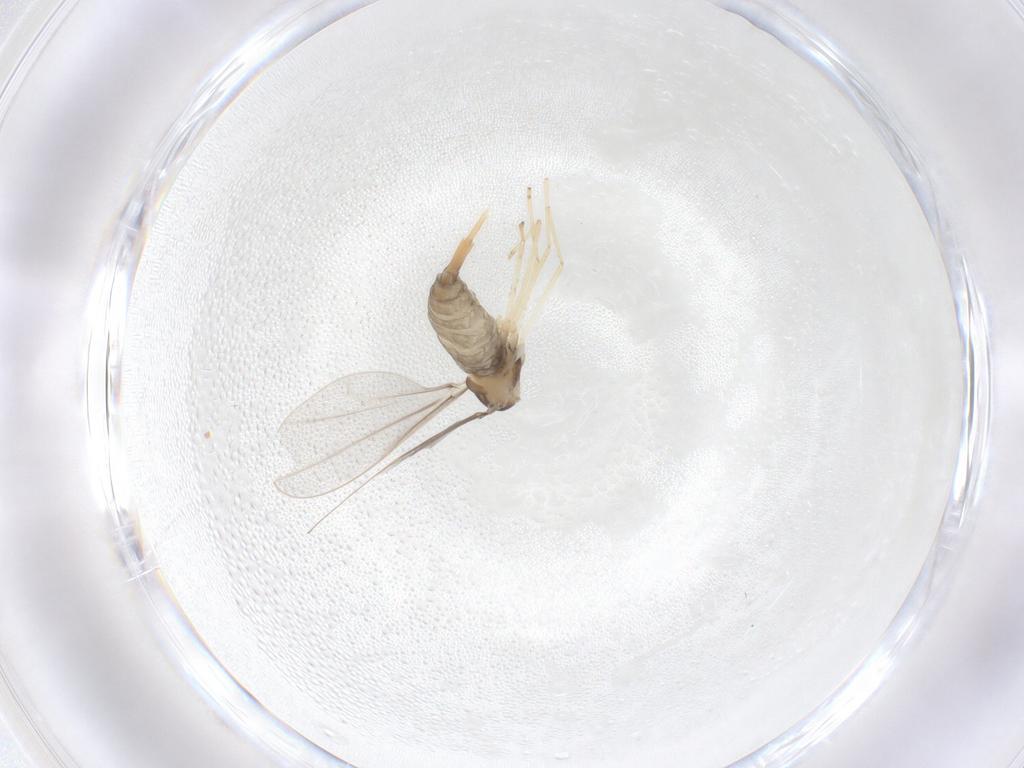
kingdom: Animalia
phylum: Arthropoda
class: Insecta
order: Diptera
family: Cecidomyiidae
